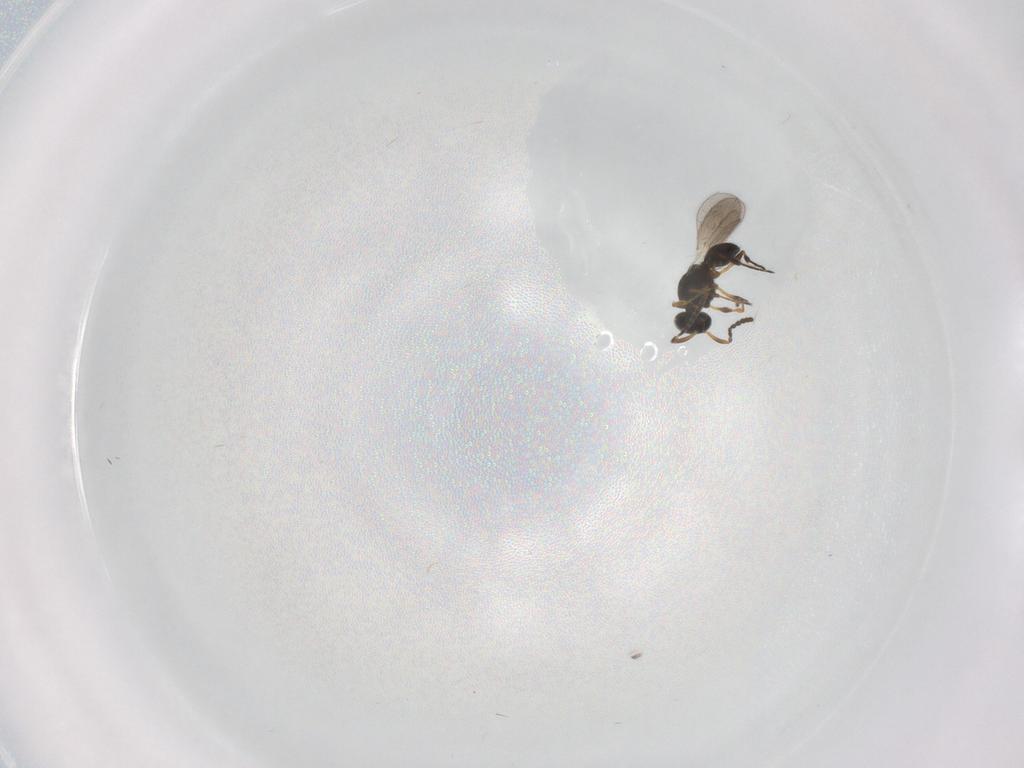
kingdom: Animalia
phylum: Arthropoda
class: Insecta
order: Hymenoptera
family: Platygastridae
